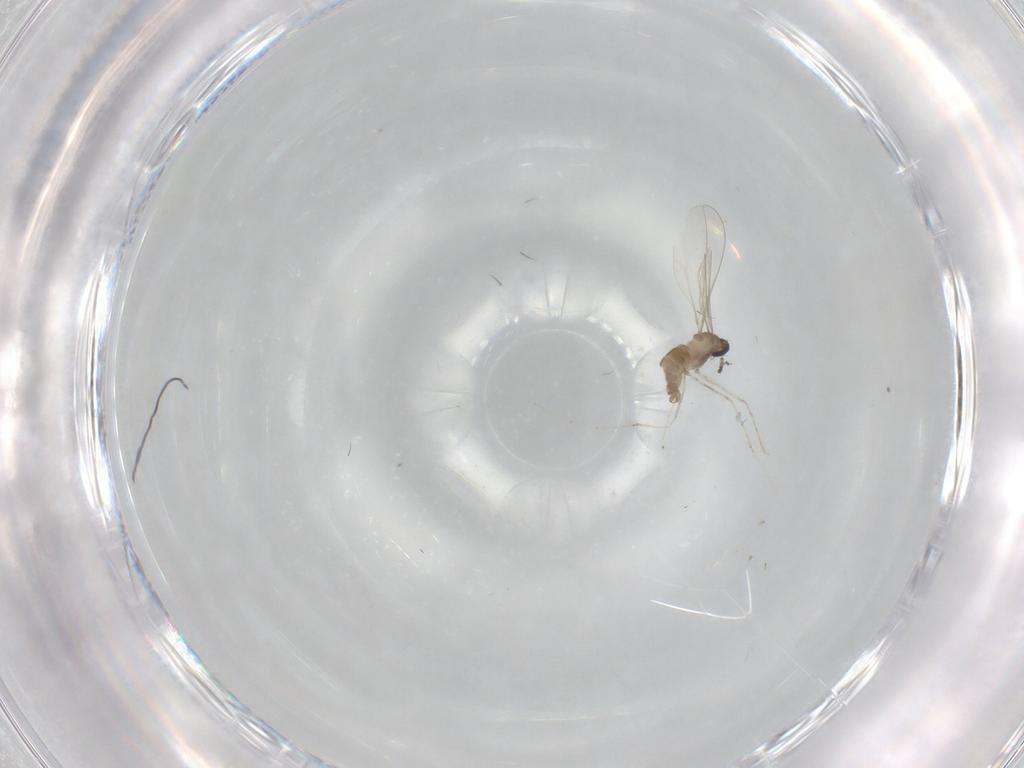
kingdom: Animalia
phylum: Arthropoda
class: Insecta
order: Diptera
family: Cecidomyiidae
